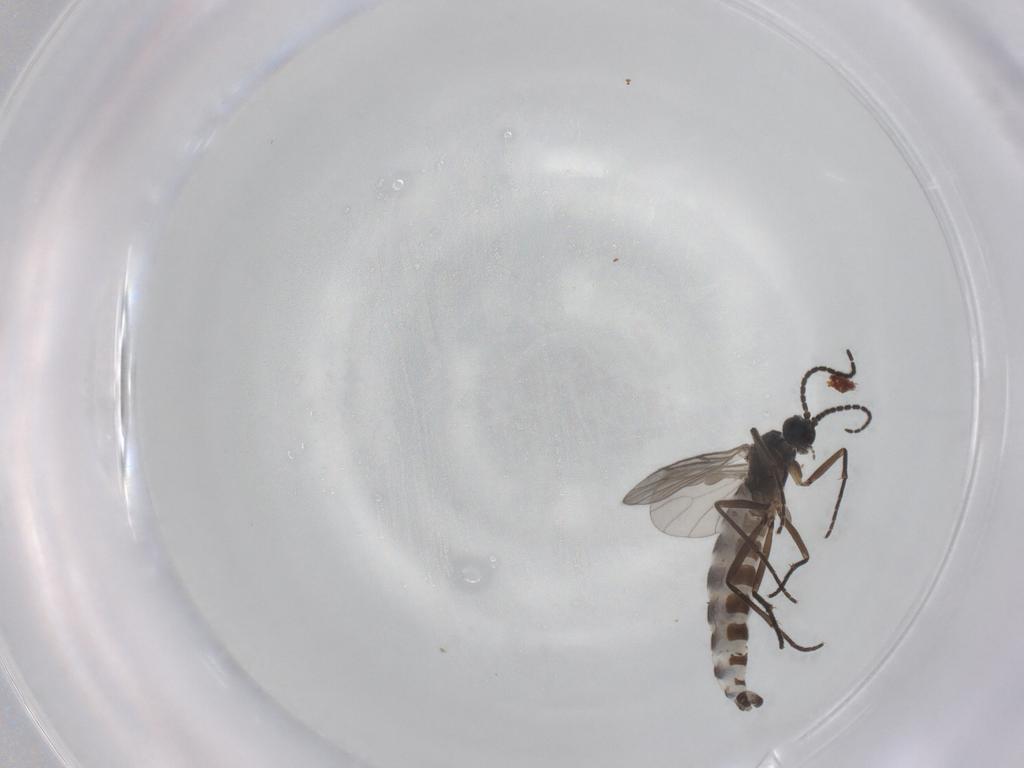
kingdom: Animalia
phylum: Arthropoda
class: Insecta
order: Diptera
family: Sciaridae
